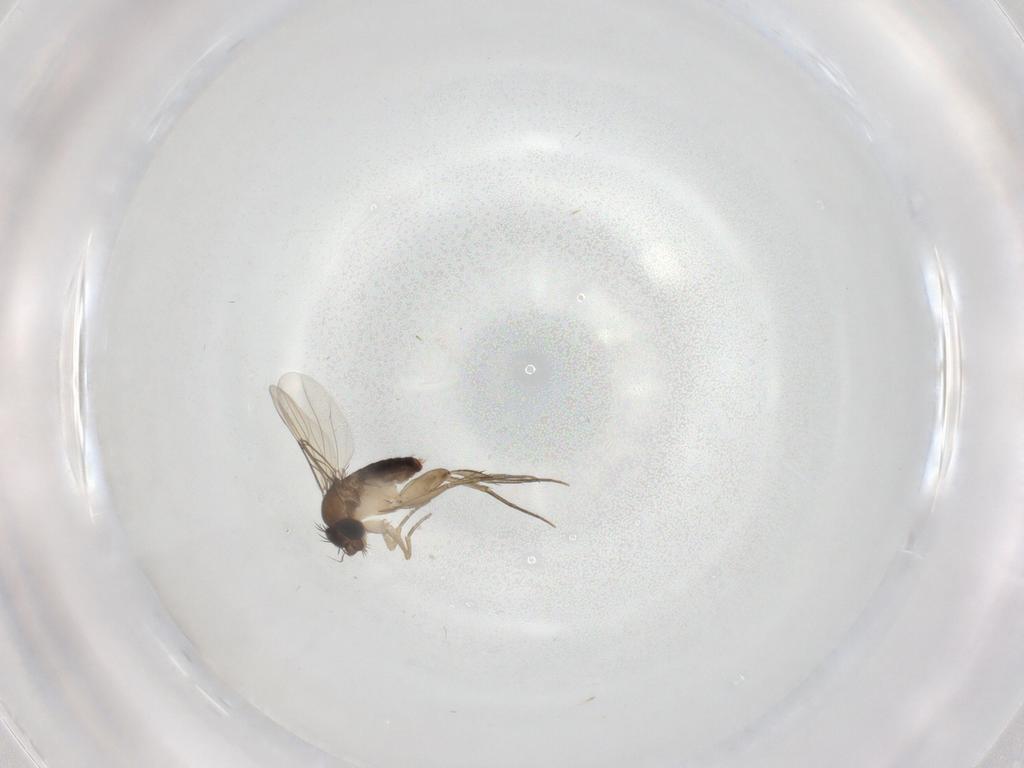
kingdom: Animalia
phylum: Arthropoda
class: Insecta
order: Diptera
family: Phoridae
